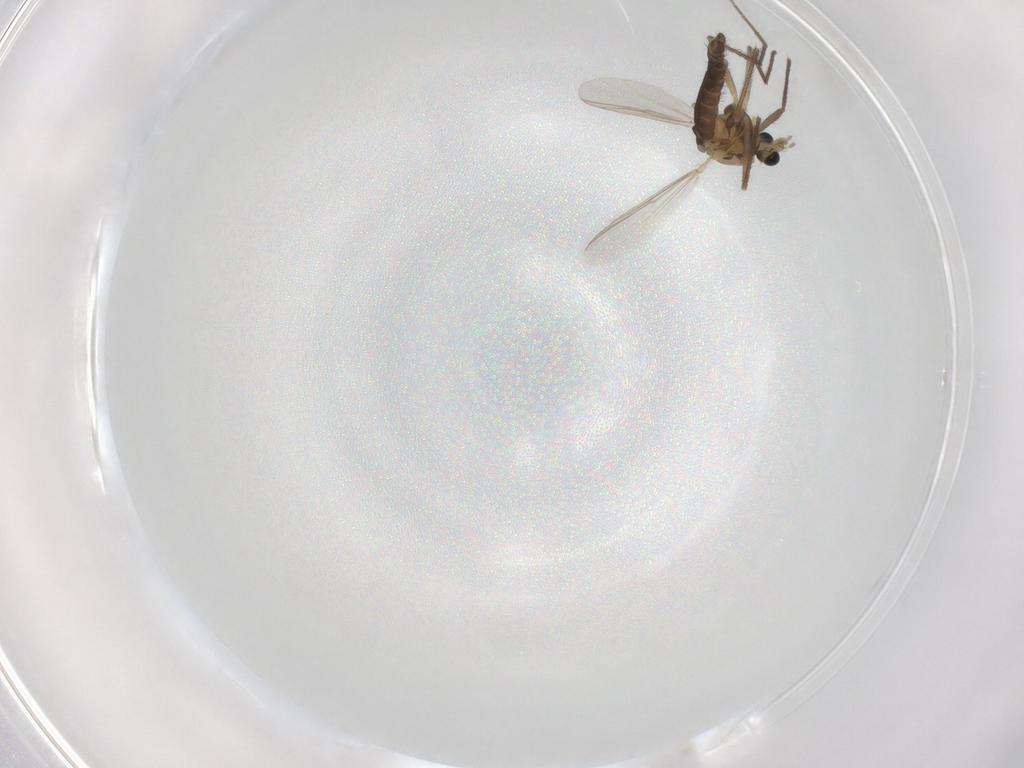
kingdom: Animalia
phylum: Arthropoda
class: Insecta
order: Diptera
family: Chironomidae
